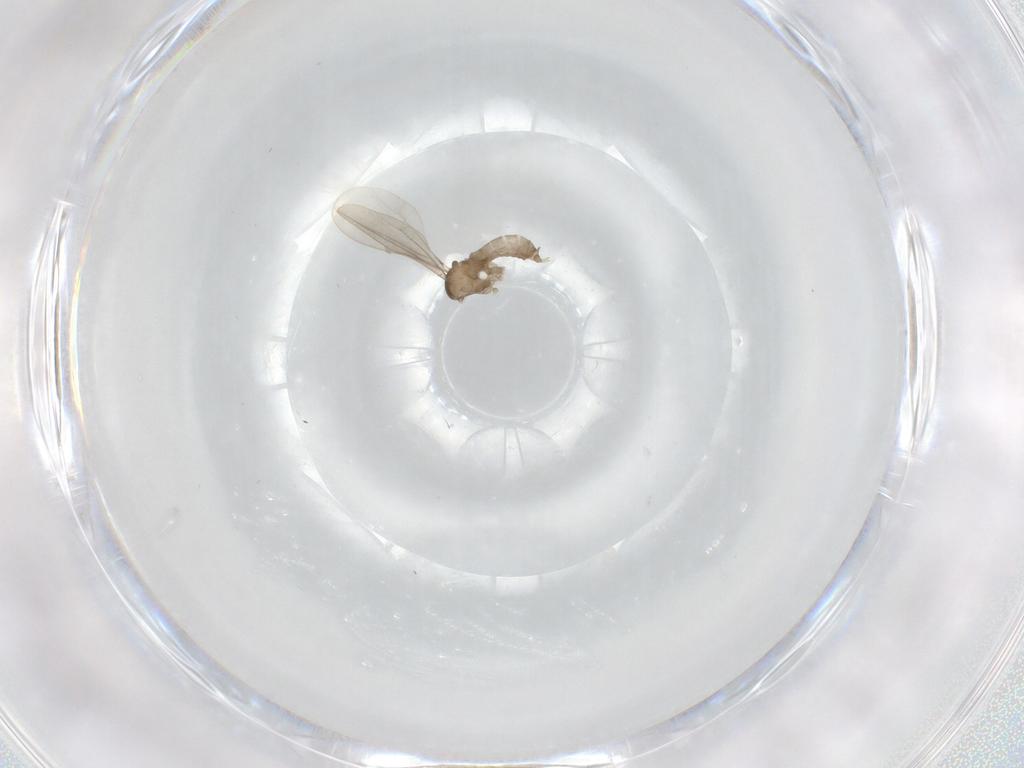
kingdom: Animalia
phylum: Arthropoda
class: Insecta
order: Diptera
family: Cecidomyiidae
